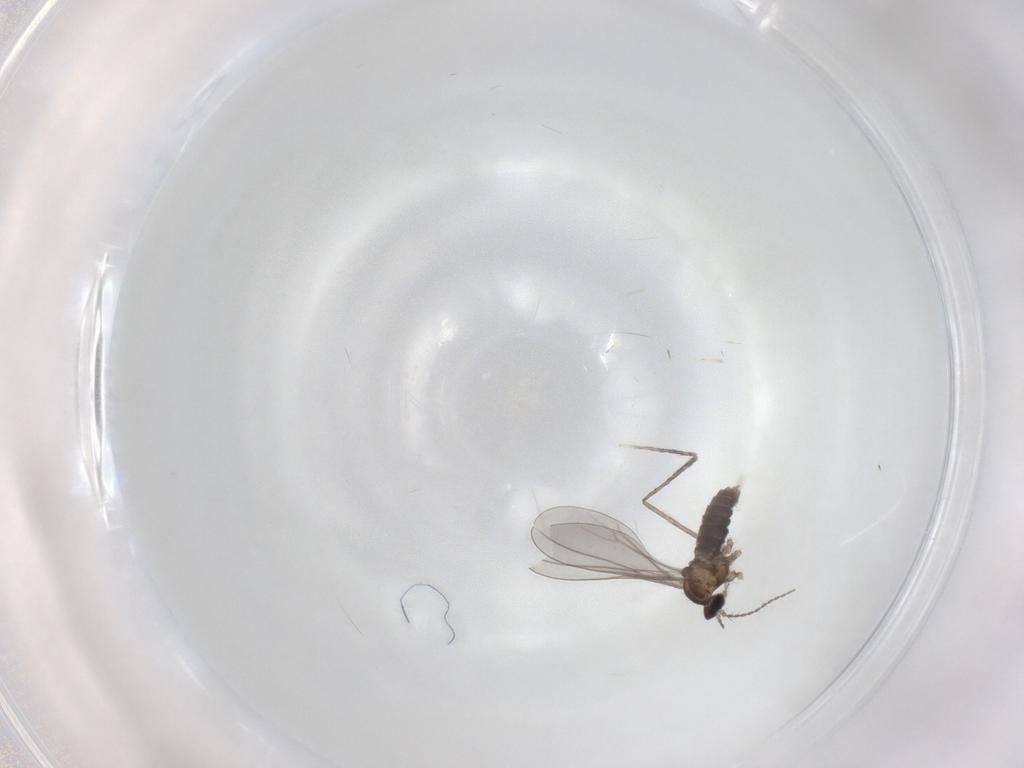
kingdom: Animalia
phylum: Arthropoda
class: Insecta
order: Diptera
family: Cecidomyiidae
